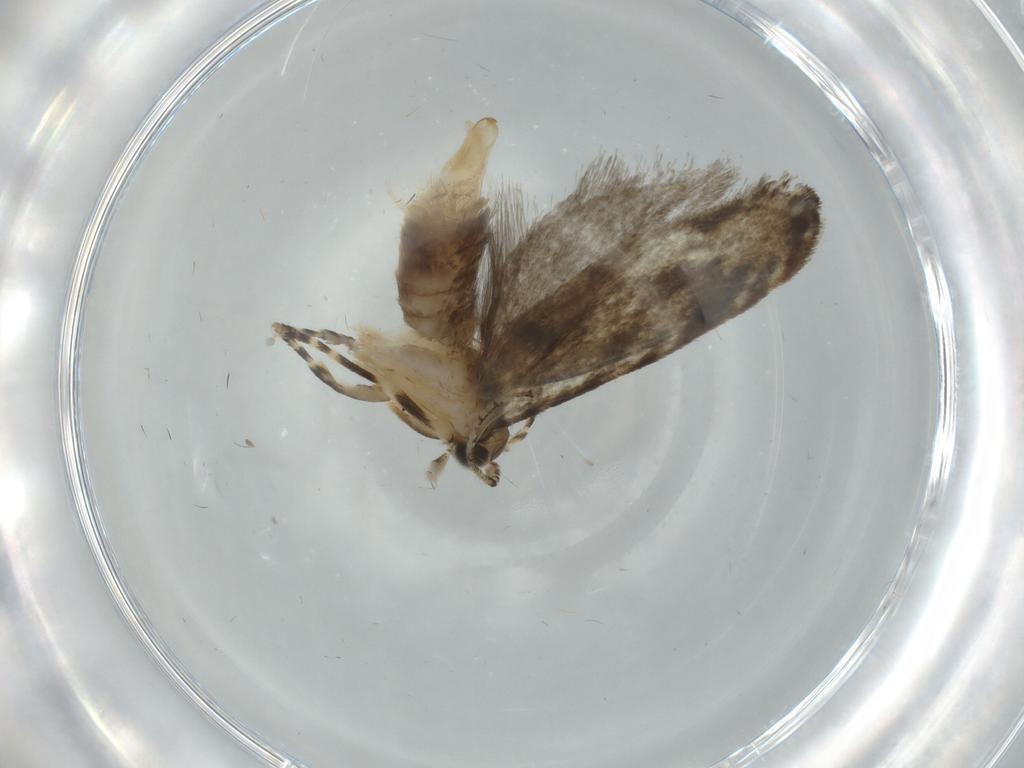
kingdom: Animalia
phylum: Arthropoda
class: Insecta
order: Lepidoptera
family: Tineidae
